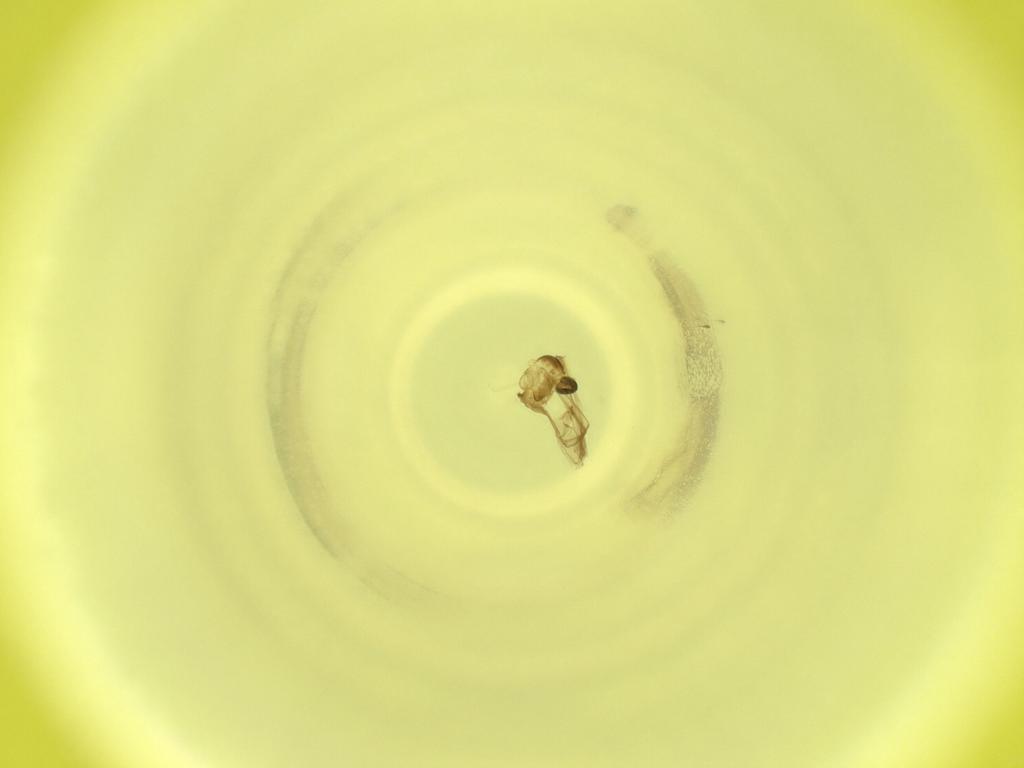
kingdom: Animalia
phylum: Arthropoda
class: Insecta
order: Diptera
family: Cecidomyiidae
